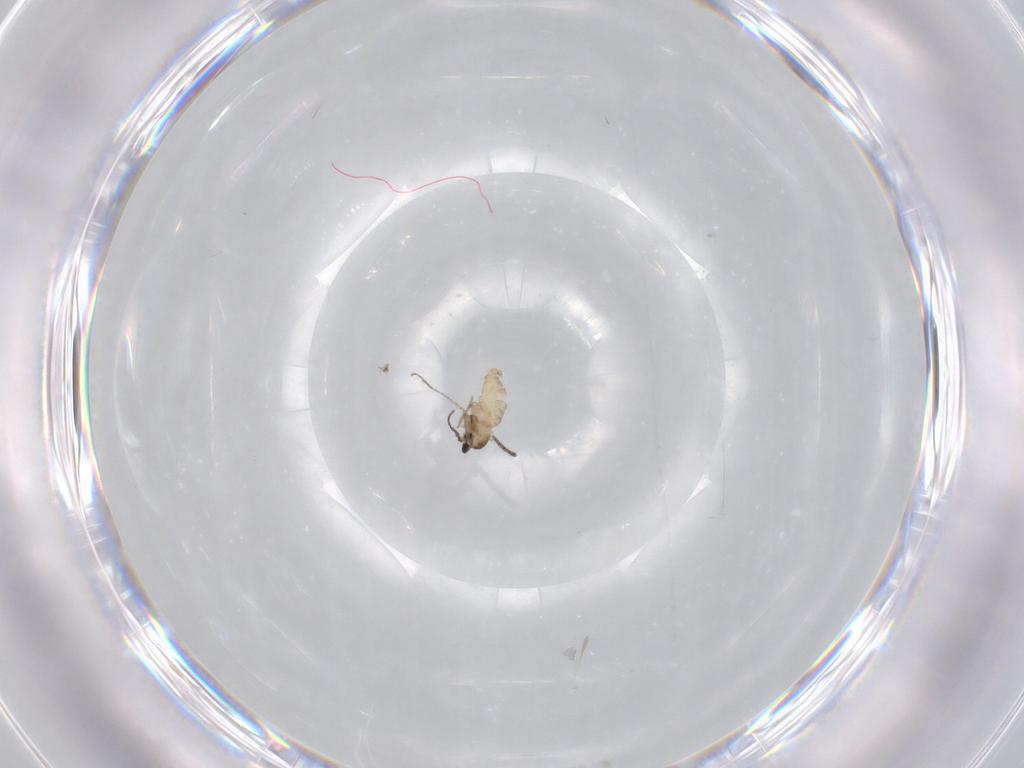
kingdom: Animalia
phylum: Arthropoda
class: Insecta
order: Diptera
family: Cecidomyiidae
